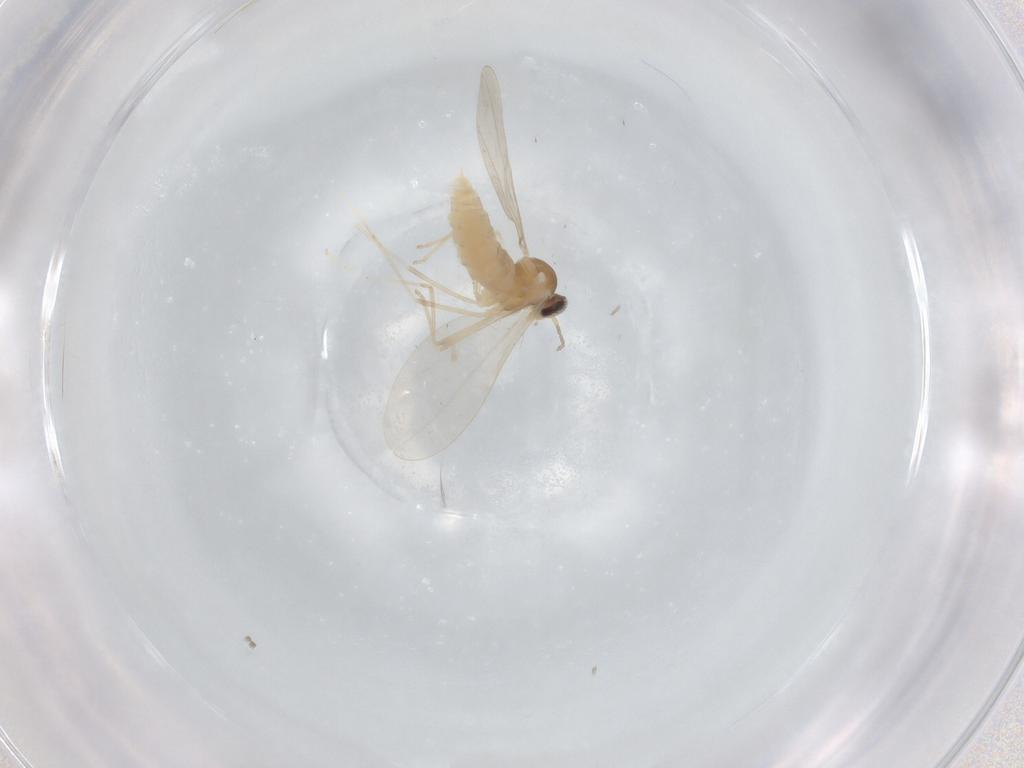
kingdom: Animalia
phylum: Arthropoda
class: Insecta
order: Diptera
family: Cecidomyiidae
